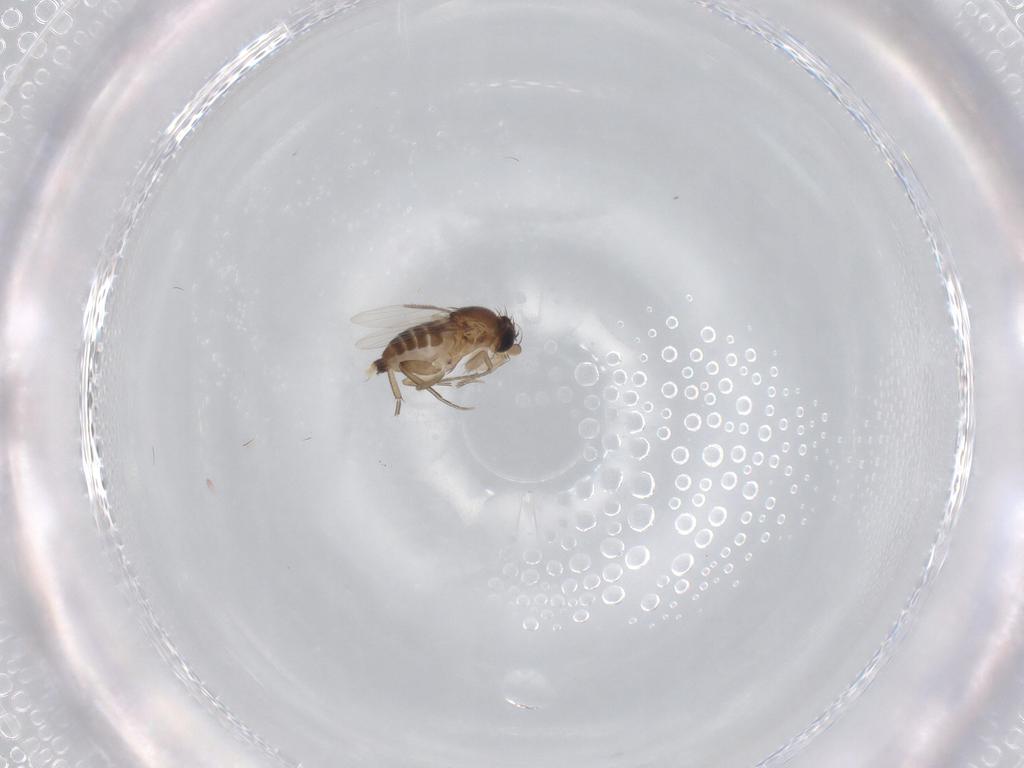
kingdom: Animalia
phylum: Arthropoda
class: Insecta
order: Diptera
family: Phoridae
